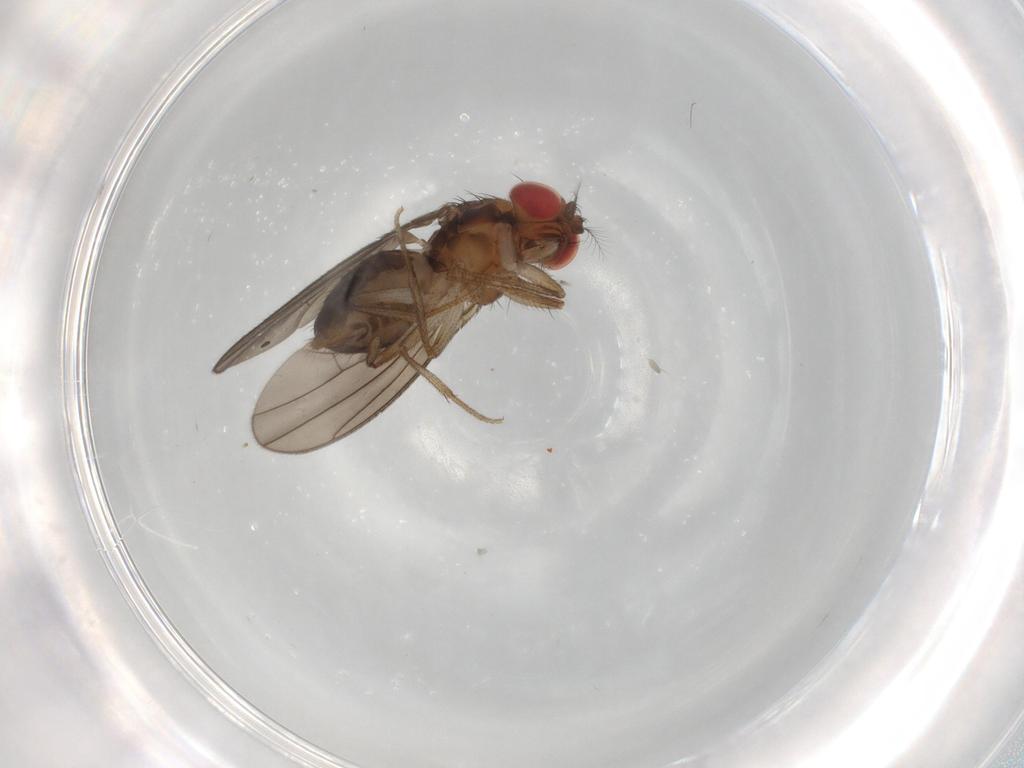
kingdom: Animalia
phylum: Arthropoda
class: Insecta
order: Diptera
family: Drosophilidae
